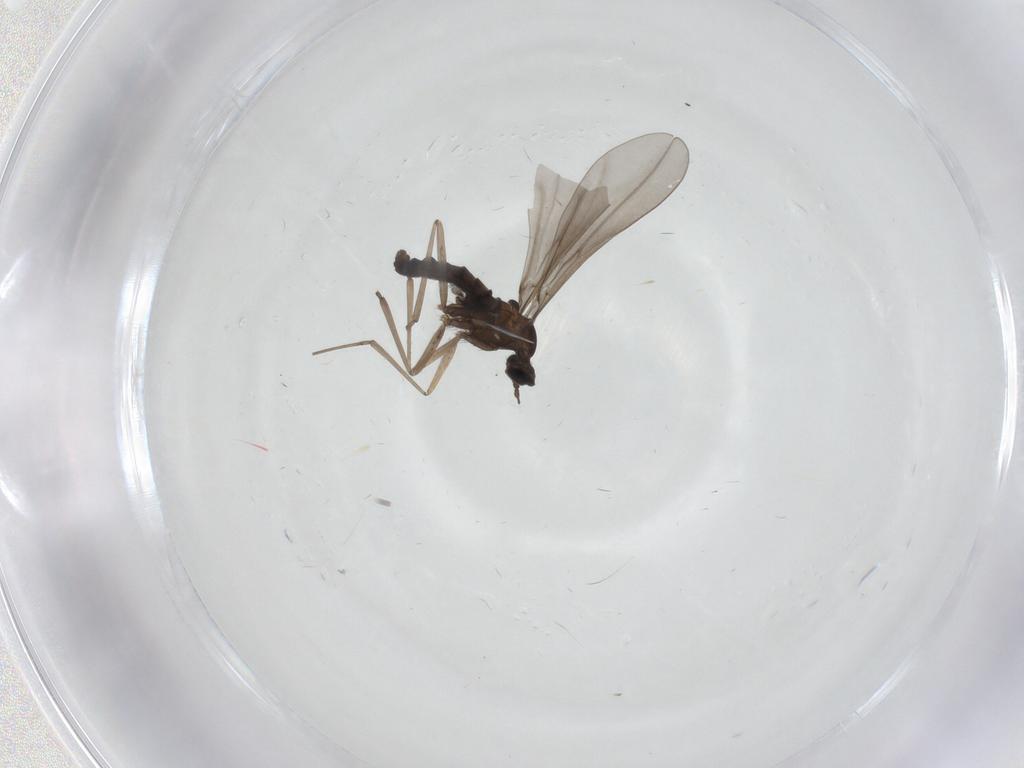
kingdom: Animalia
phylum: Arthropoda
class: Insecta
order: Diptera
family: Cecidomyiidae
